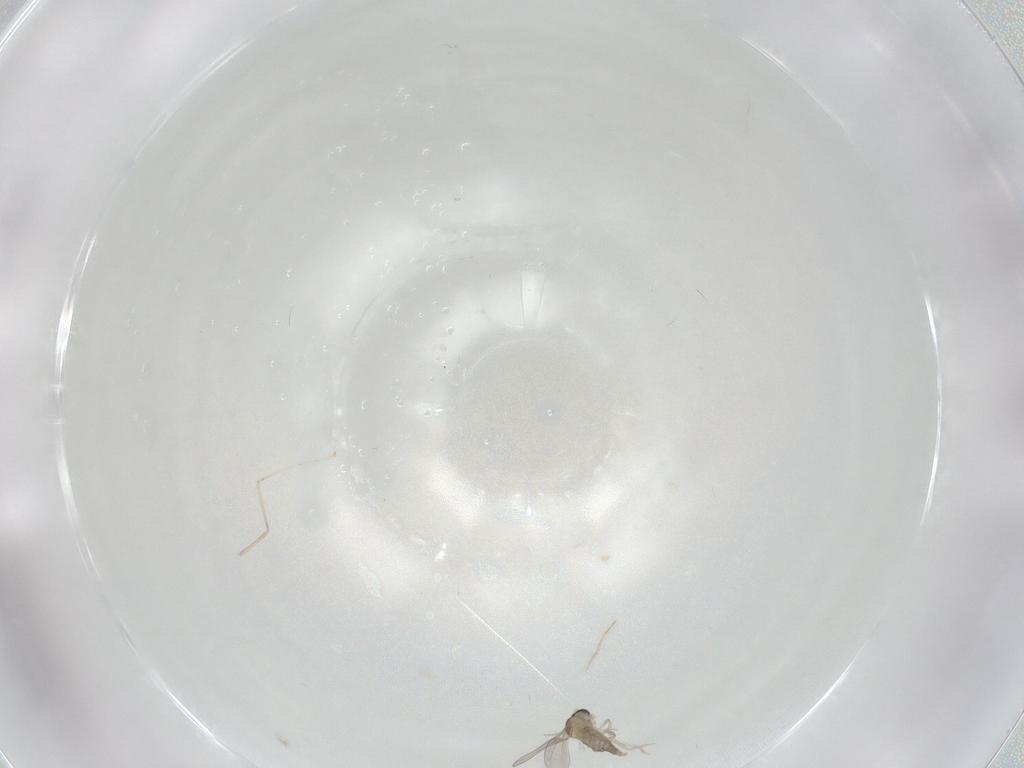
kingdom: Animalia
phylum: Arthropoda
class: Insecta
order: Diptera
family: Cecidomyiidae
